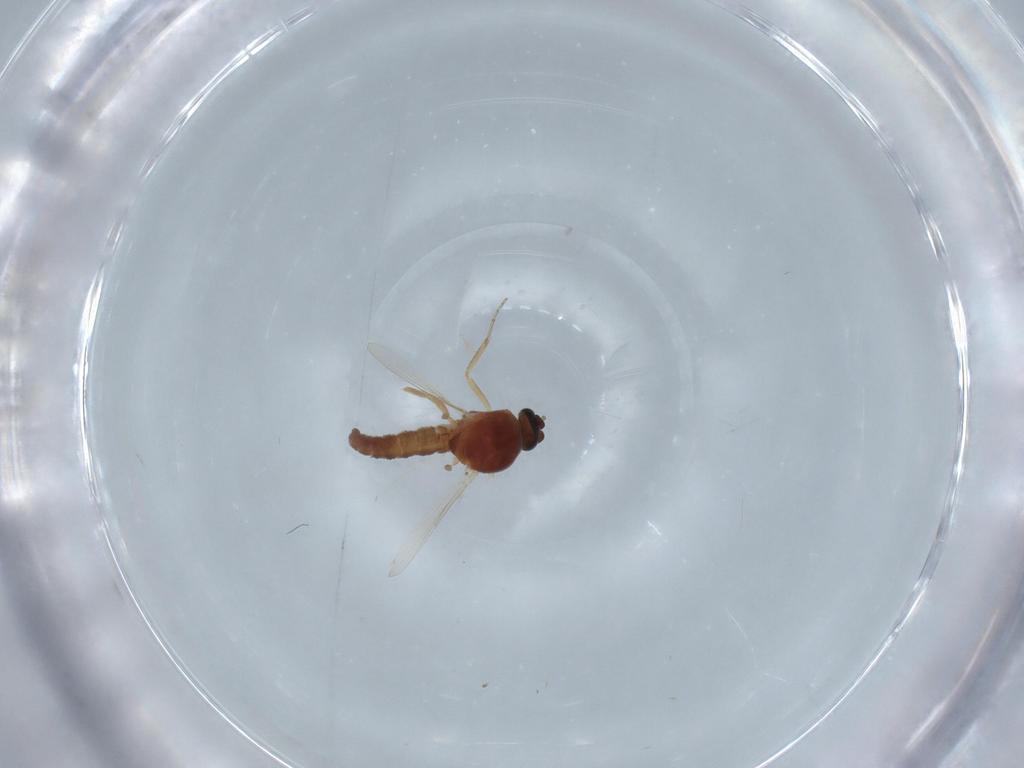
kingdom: Animalia
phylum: Arthropoda
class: Insecta
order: Diptera
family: Ceratopogonidae
